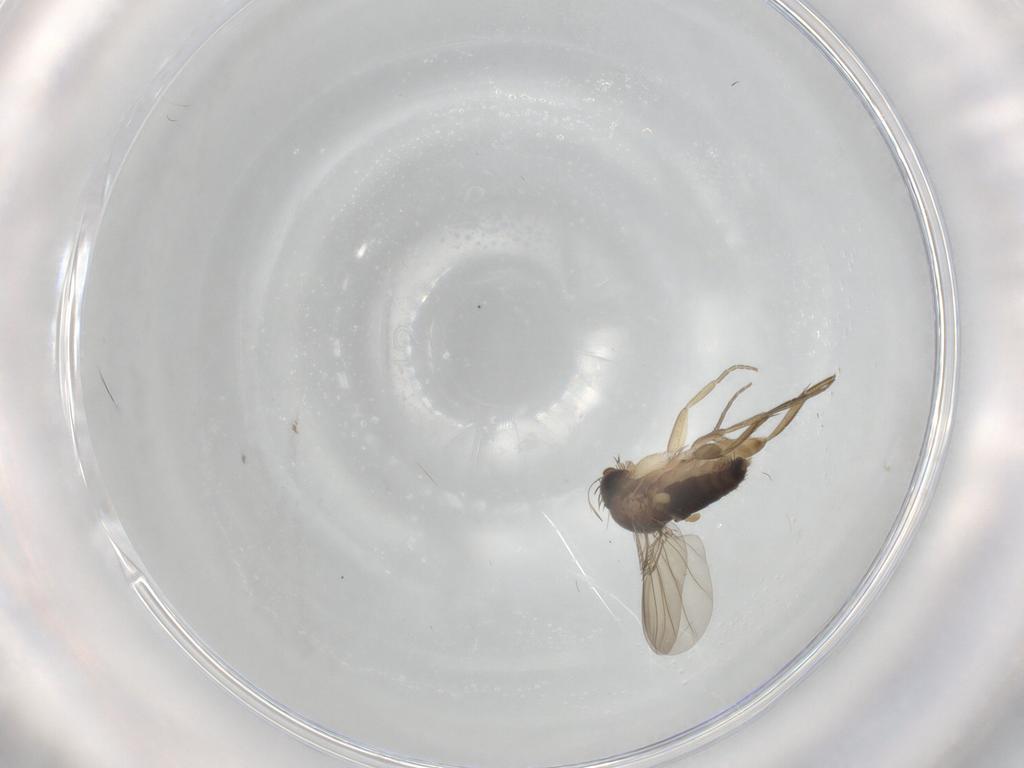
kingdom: Animalia
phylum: Arthropoda
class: Insecta
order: Diptera
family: Phoridae
